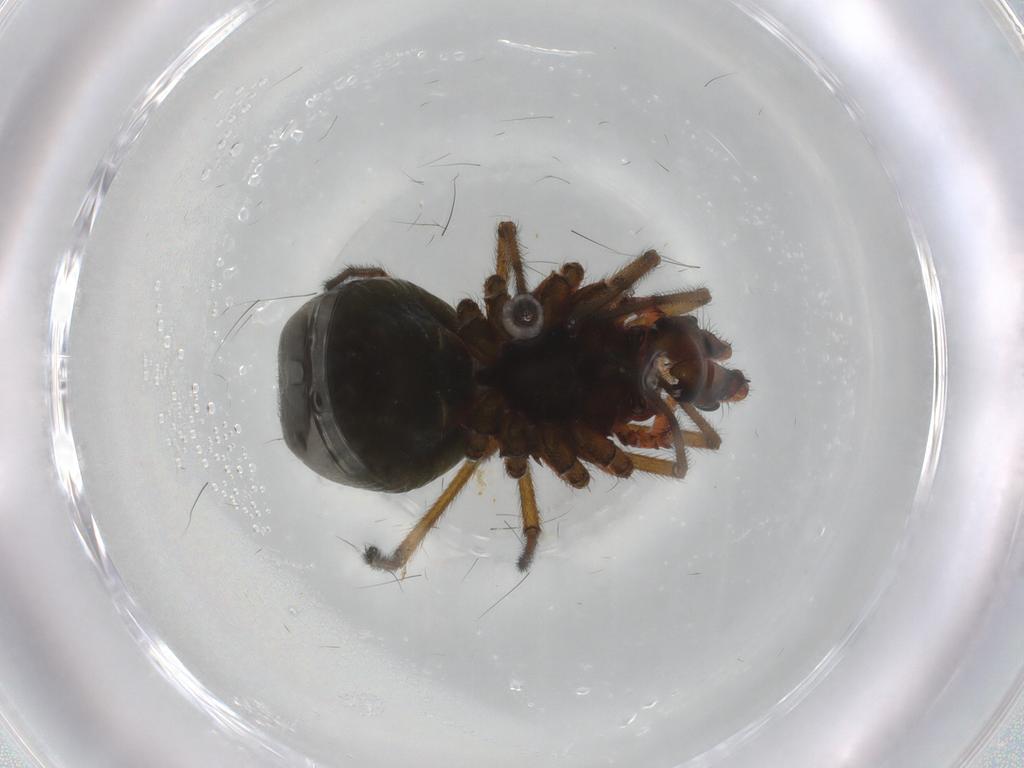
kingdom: Animalia
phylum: Arthropoda
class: Arachnida
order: Araneae
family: Linyphiidae
